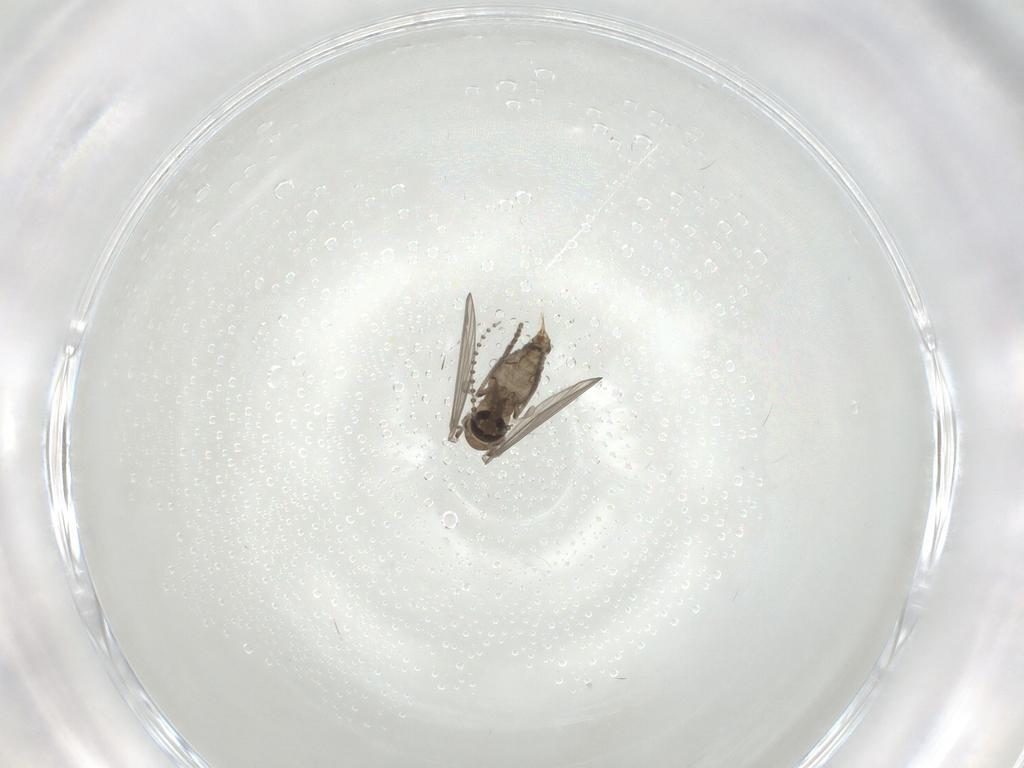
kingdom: Animalia
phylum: Arthropoda
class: Insecta
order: Diptera
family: Psychodidae
